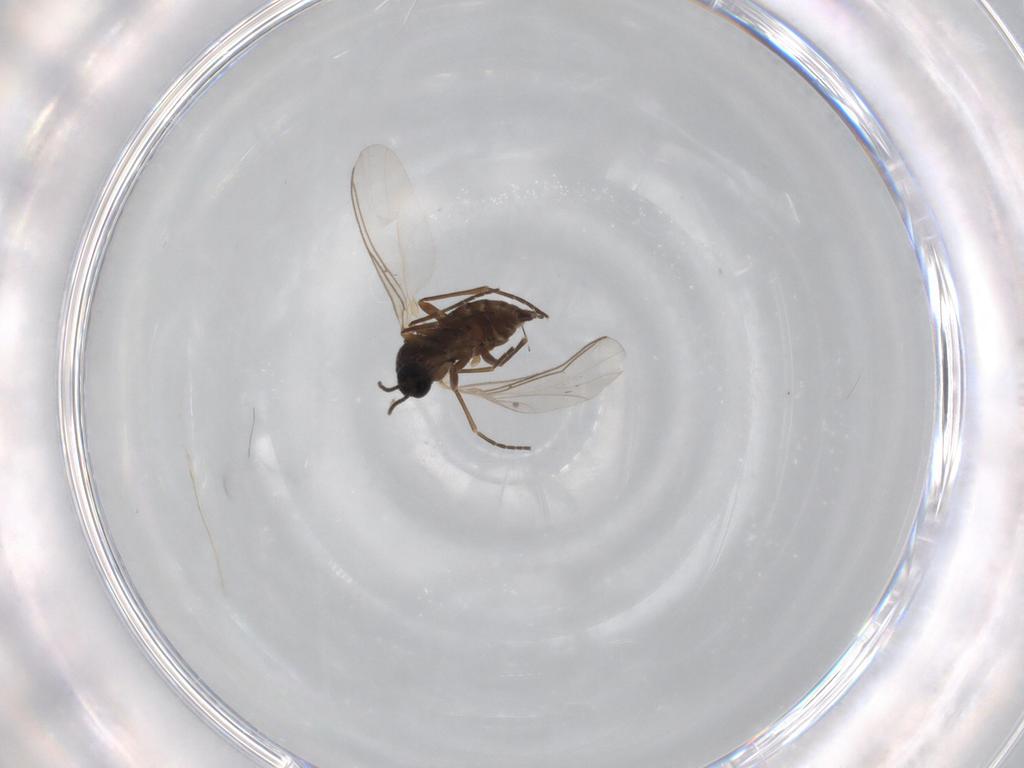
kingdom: Animalia
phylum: Arthropoda
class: Insecta
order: Diptera
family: Sciaridae
